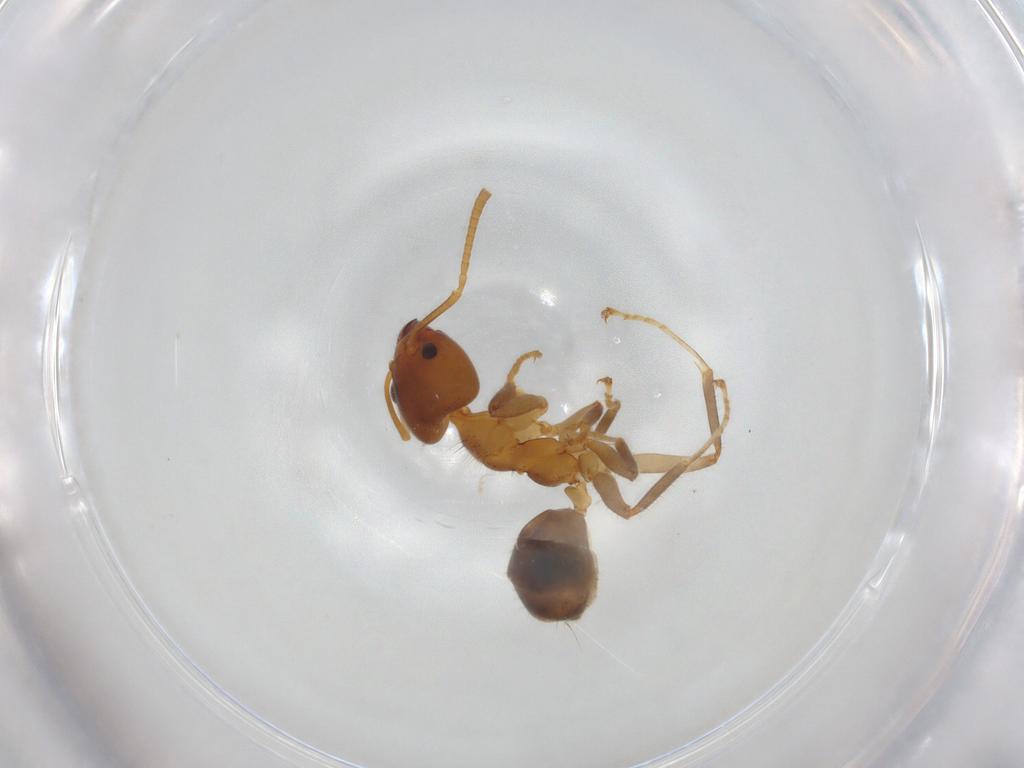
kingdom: Animalia
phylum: Arthropoda
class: Insecta
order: Hymenoptera
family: Formicidae
